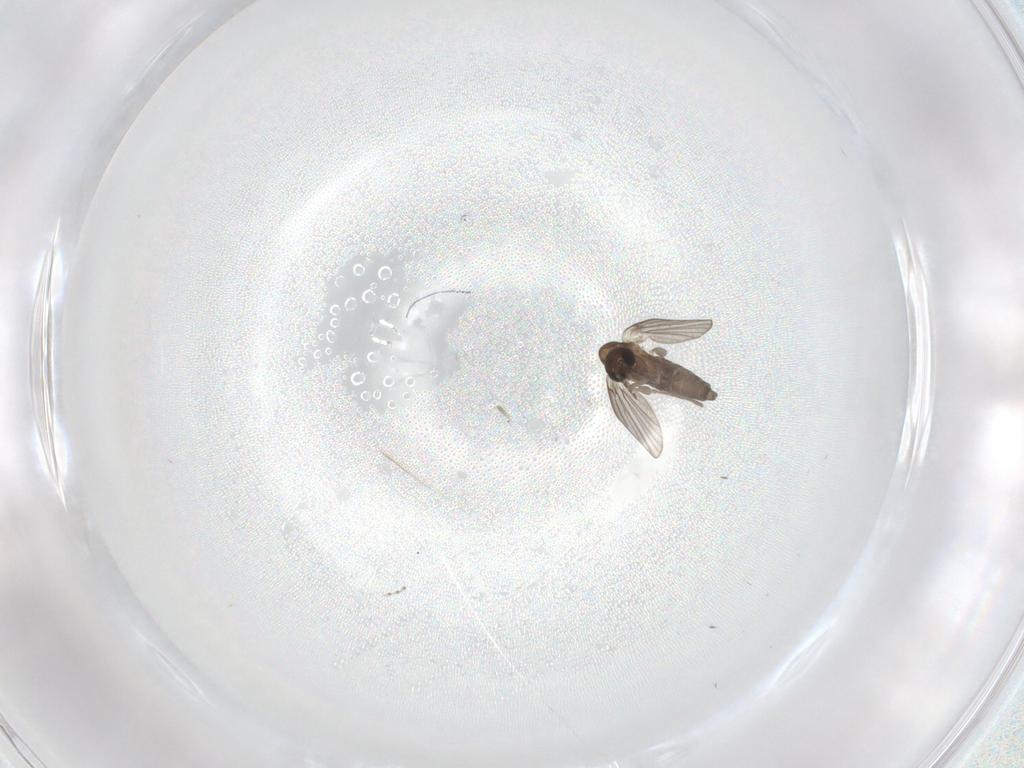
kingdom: Animalia
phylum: Arthropoda
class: Insecta
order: Diptera
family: Cecidomyiidae
